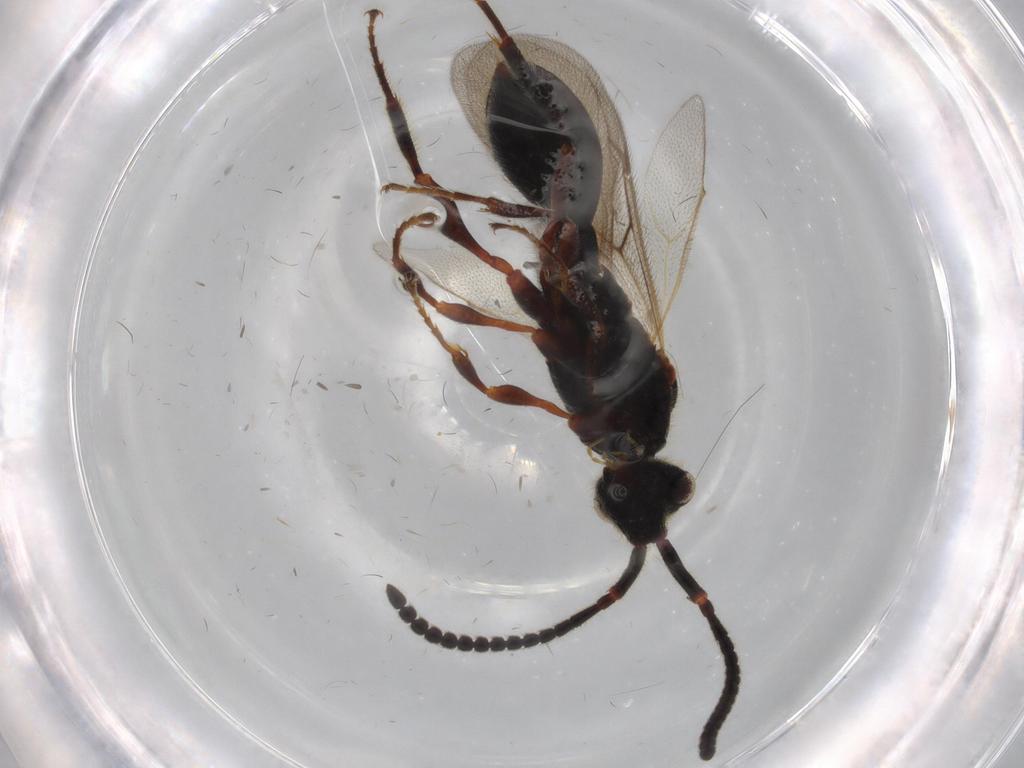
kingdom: Animalia
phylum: Arthropoda
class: Insecta
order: Hymenoptera
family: Diapriidae
